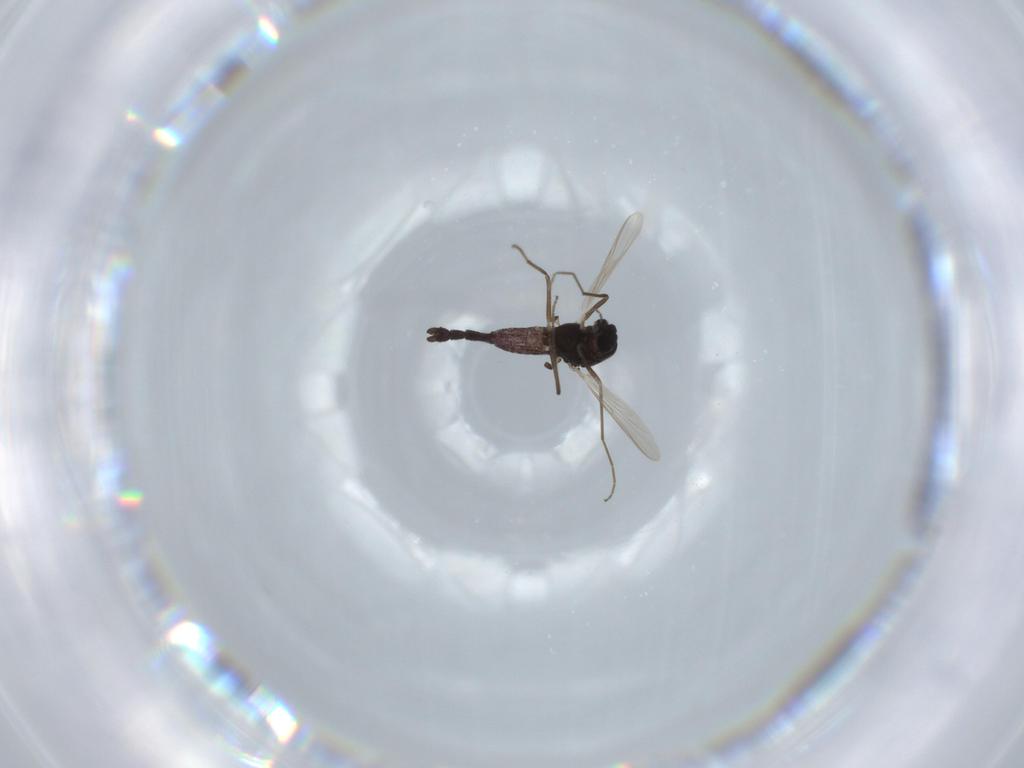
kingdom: Animalia
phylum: Arthropoda
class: Insecta
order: Diptera
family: Chironomidae
